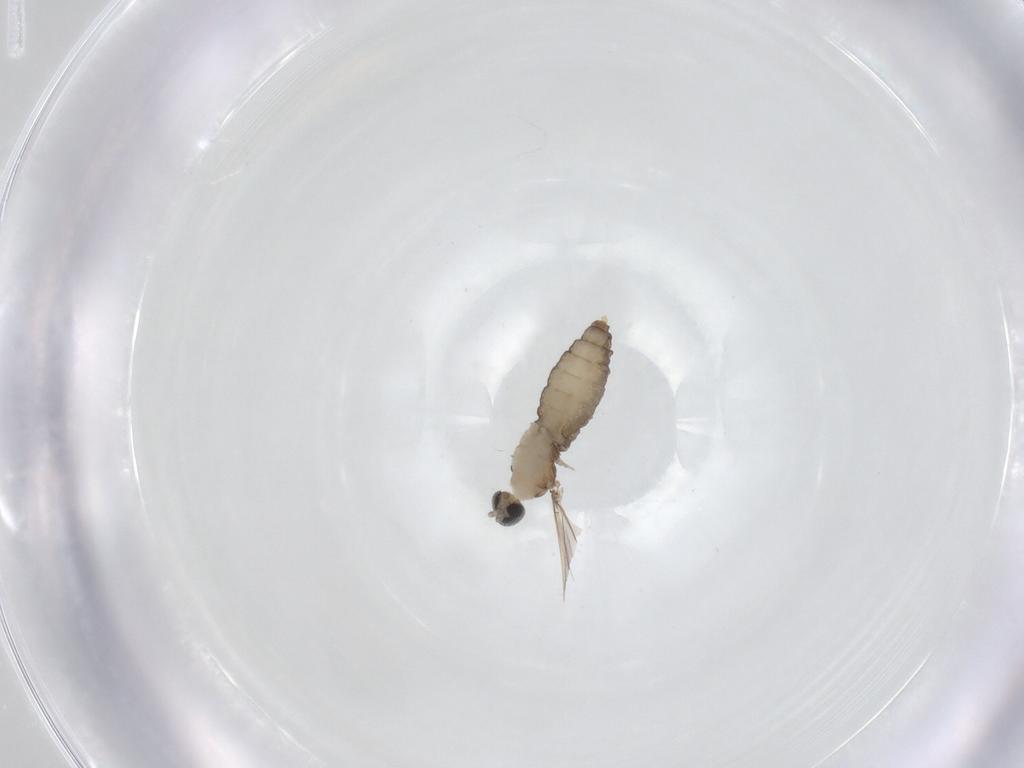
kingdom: Animalia
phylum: Arthropoda
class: Insecta
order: Diptera
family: Cecidomyiidae
